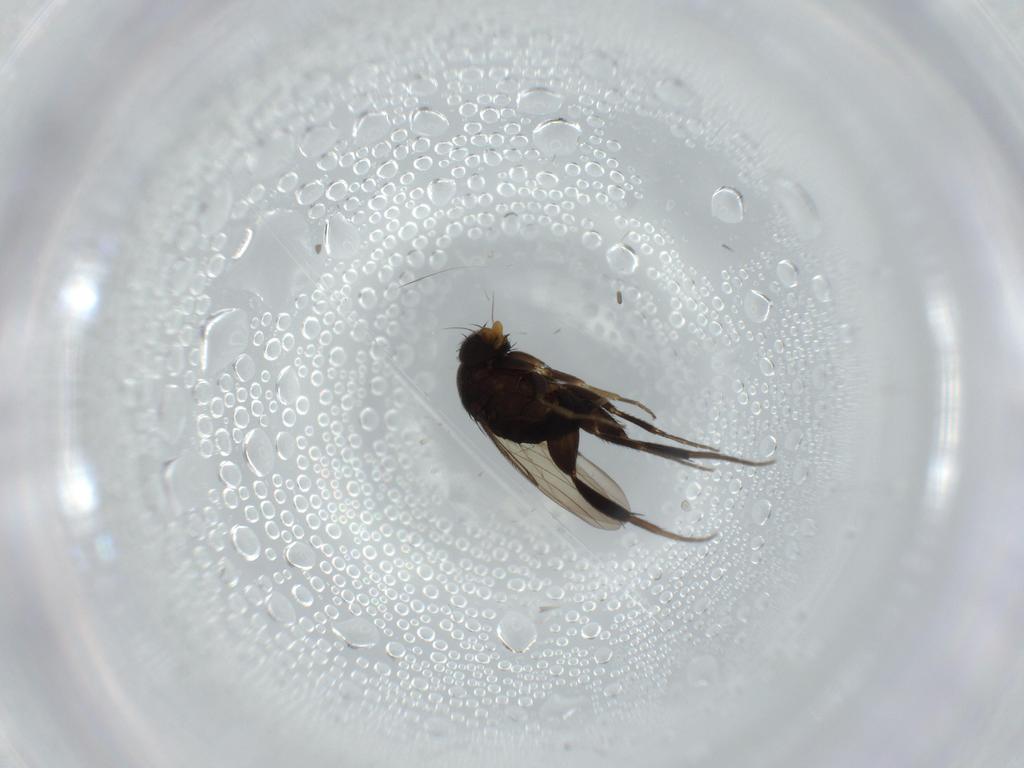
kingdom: Animalia
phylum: Arthropoda
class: Insecta
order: Diptera
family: Phoridae
